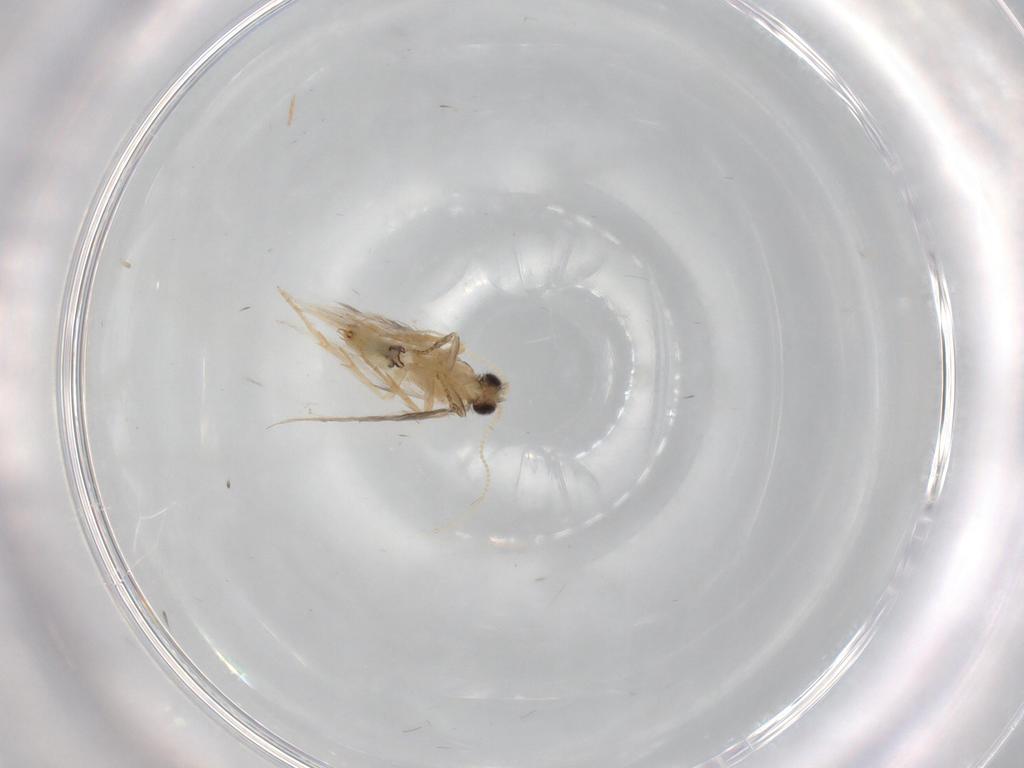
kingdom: Animalia
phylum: Arthropoda
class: Insecta
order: Trichoptera
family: Hydroptilidae
